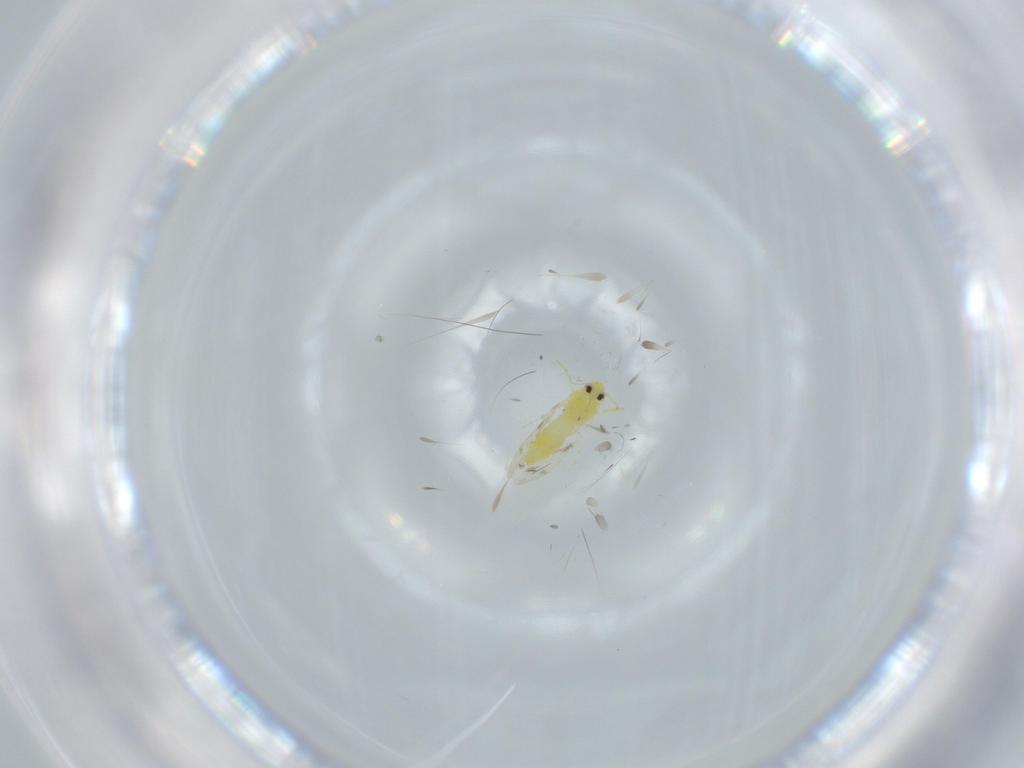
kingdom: Animalia
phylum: Arthropoda
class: Insecta
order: Hemiptera
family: Aleyrodidae
